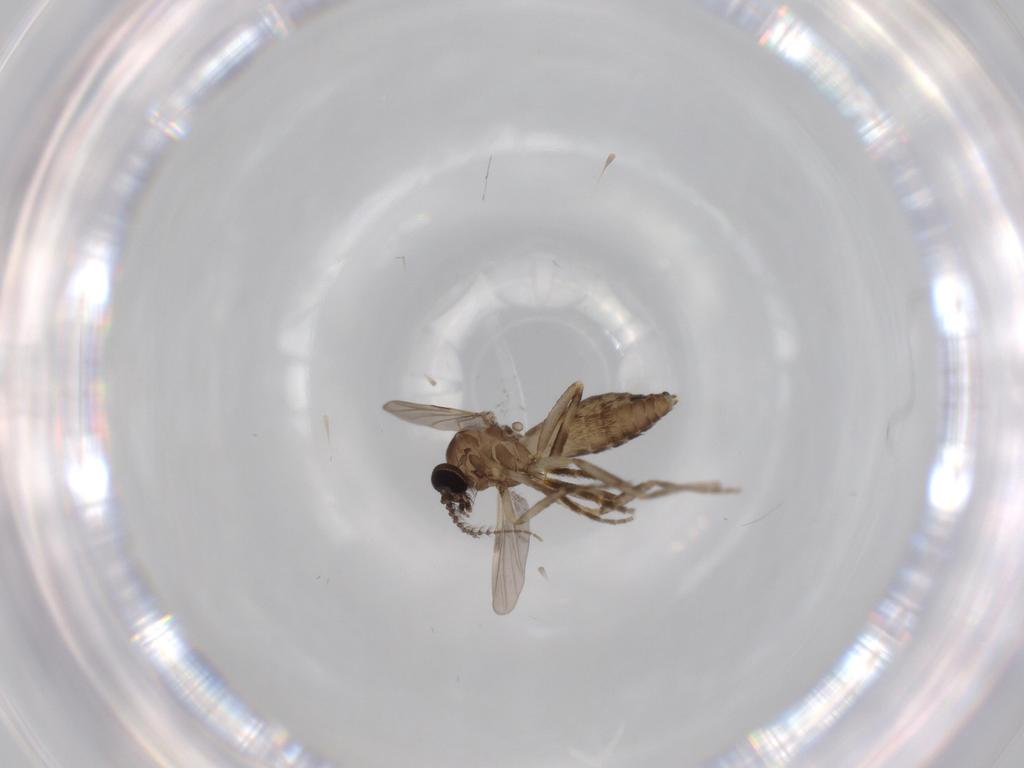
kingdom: Animalia
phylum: Arthropoda
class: Insecta
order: Diptera
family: Ceratopogonidae
